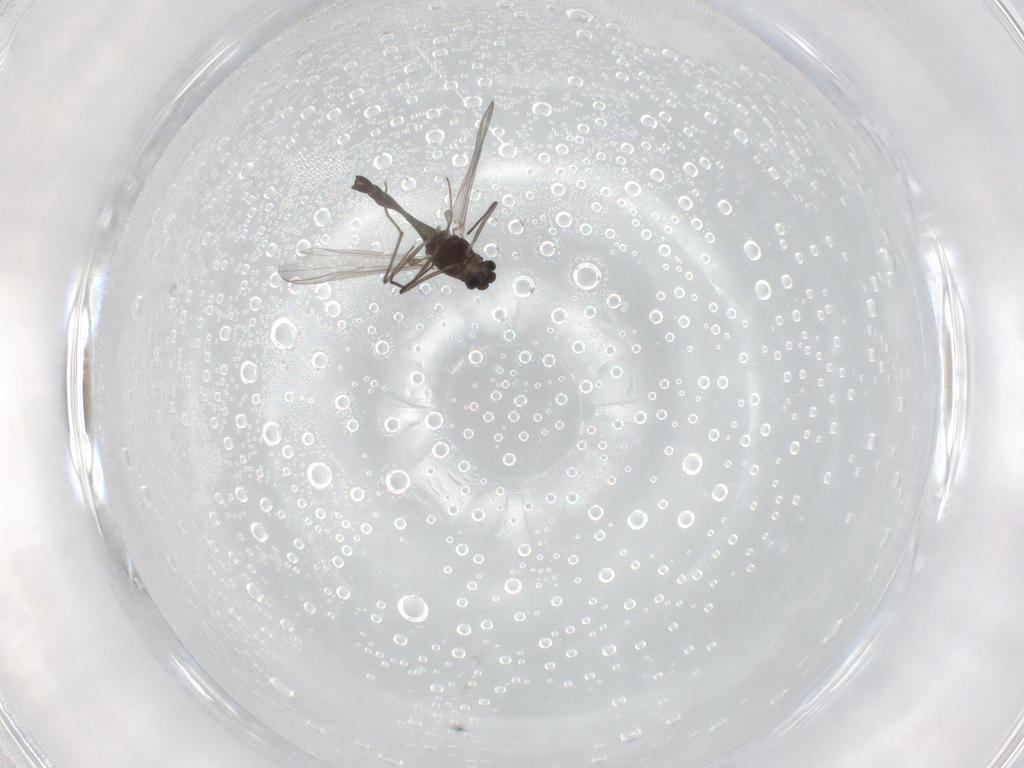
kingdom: Animalia
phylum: Arthropoda
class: Insecta
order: Diptera
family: Chironomidae
